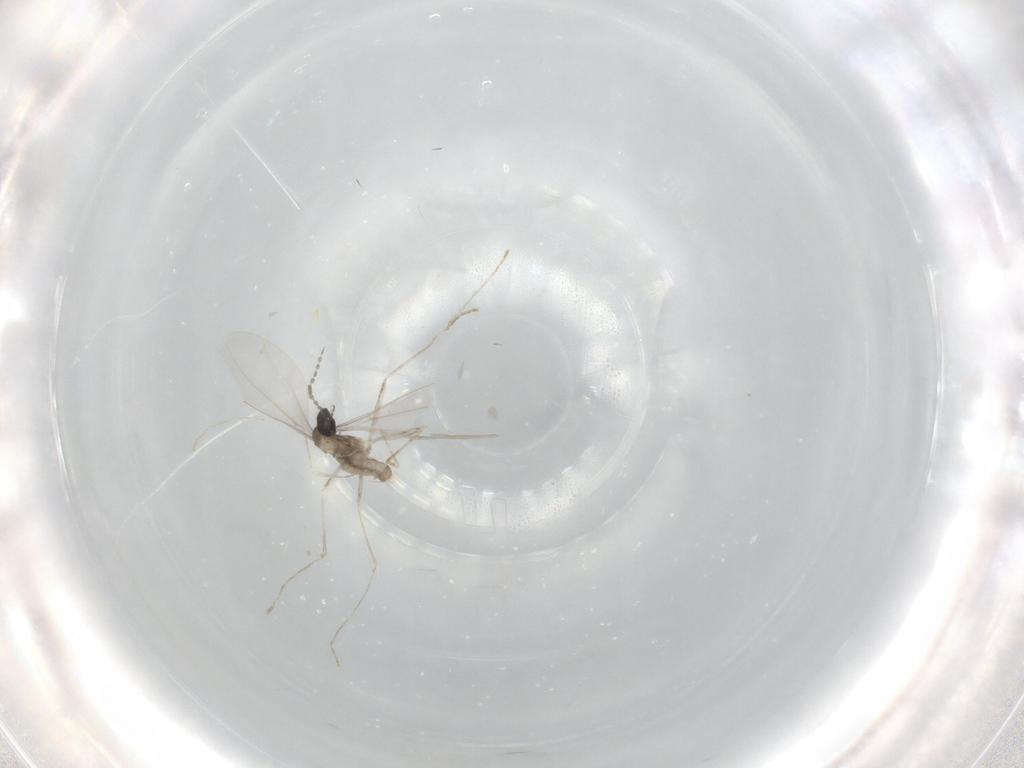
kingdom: Animalia
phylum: Arthropoda
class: Insecta
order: Diptera
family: Cecidomyiidae
